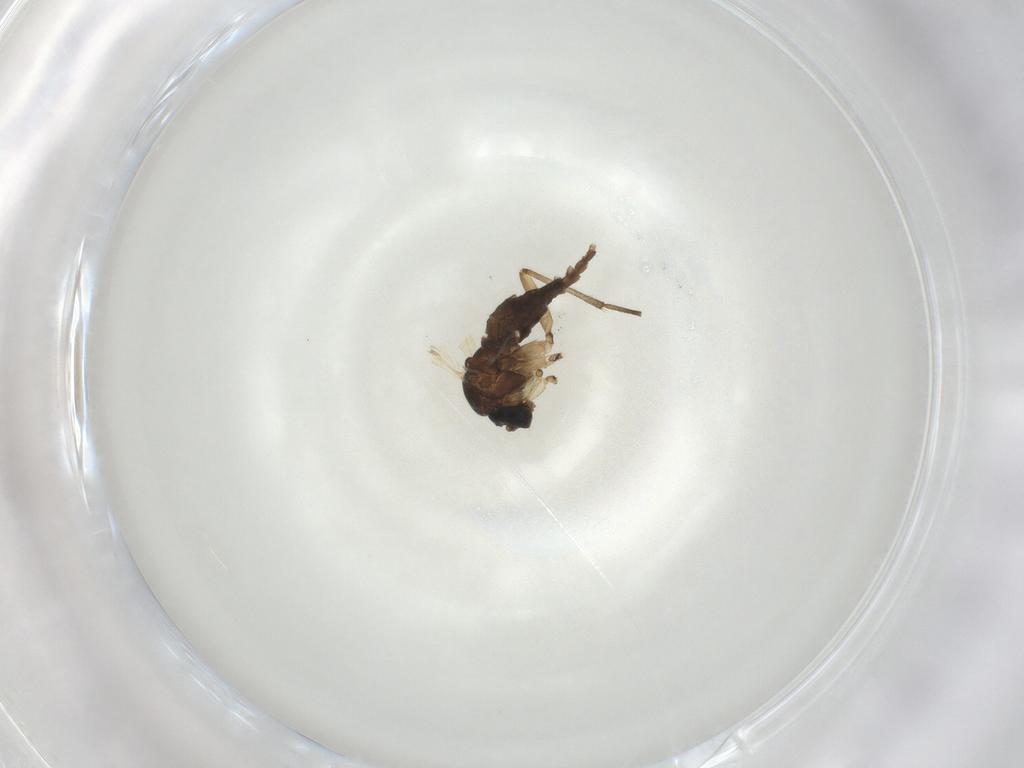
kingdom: Animalia
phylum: Arthropoda
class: Insecta
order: Diptera
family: Sciaridae
